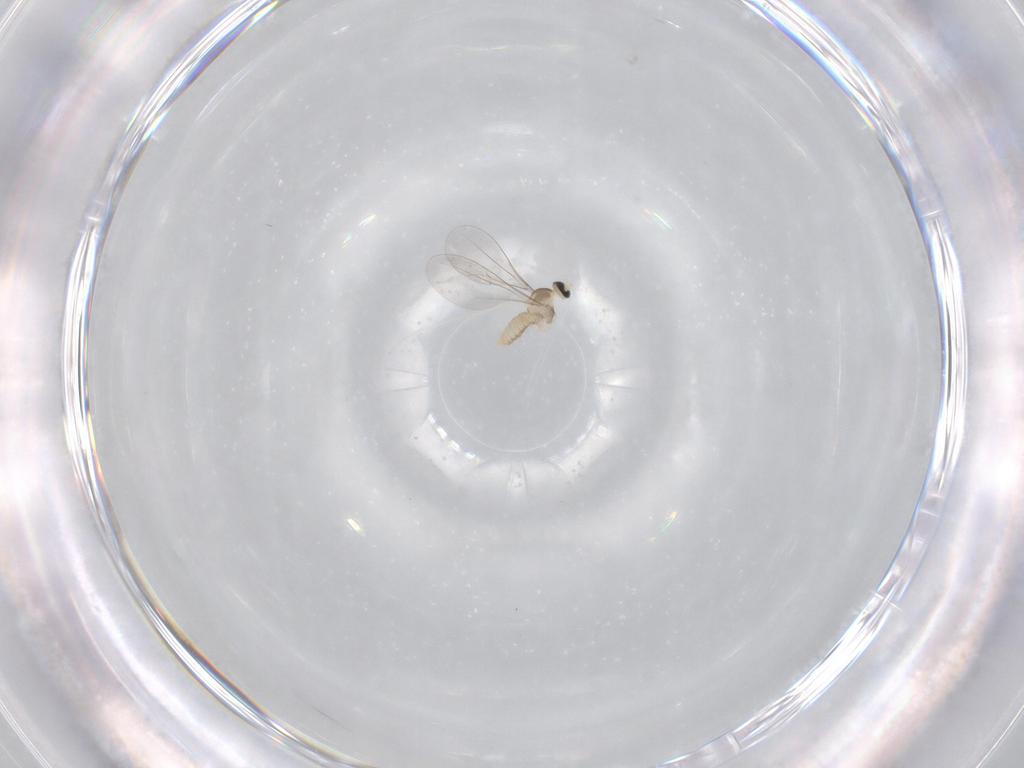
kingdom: Animalia
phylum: Arthropoda
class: Insecta
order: Diptera
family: Cecidomyiidae
